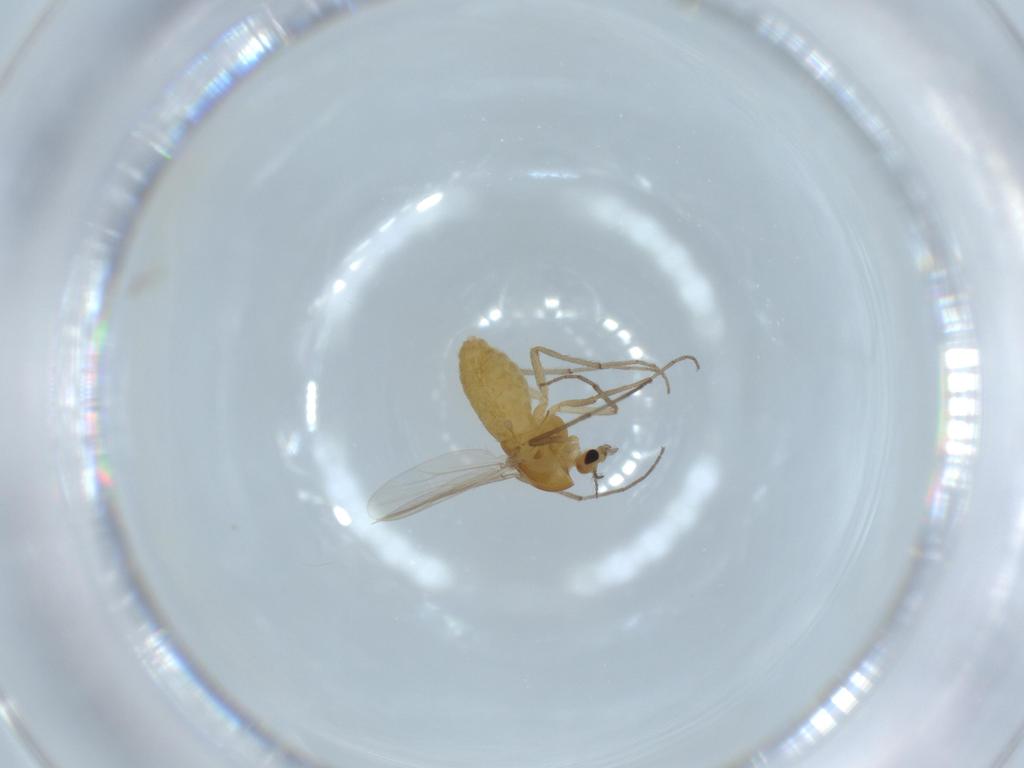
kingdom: Animalia
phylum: Arthropoda
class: Insecta
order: Diptera
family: Chironomidae
